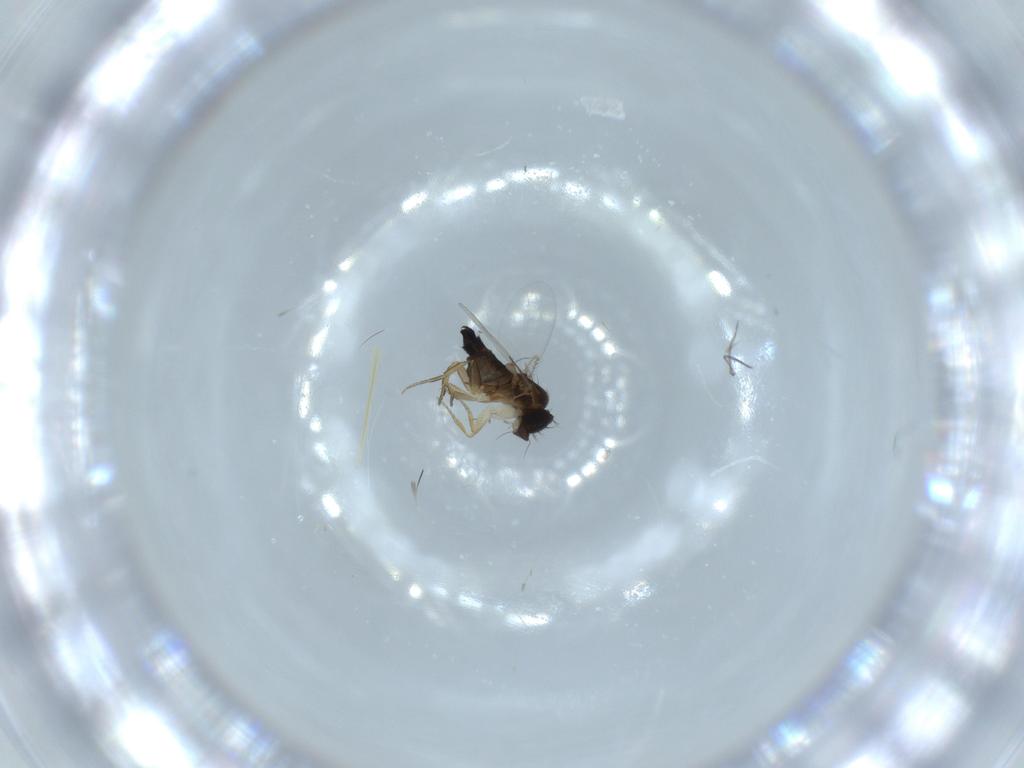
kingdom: Animalia
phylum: Arthropoda
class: Insecta
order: Diptera
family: Phoridae
